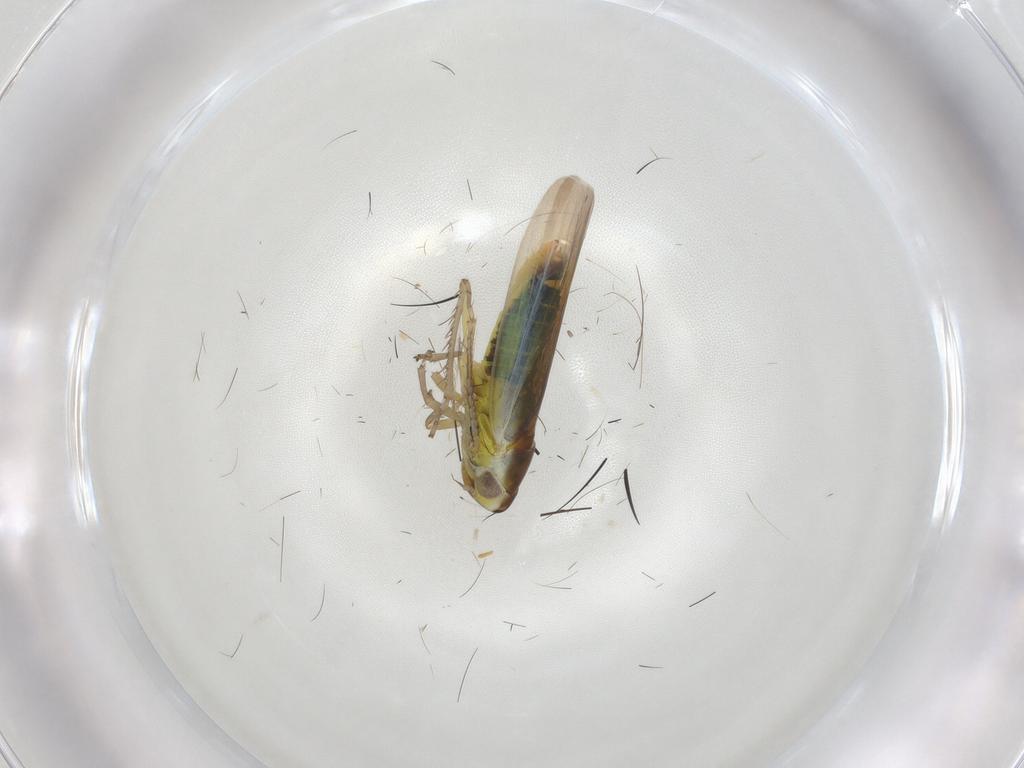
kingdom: Animalia
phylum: Arthropoda
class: Insecta
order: Hemiptera
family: Cicadellidae
